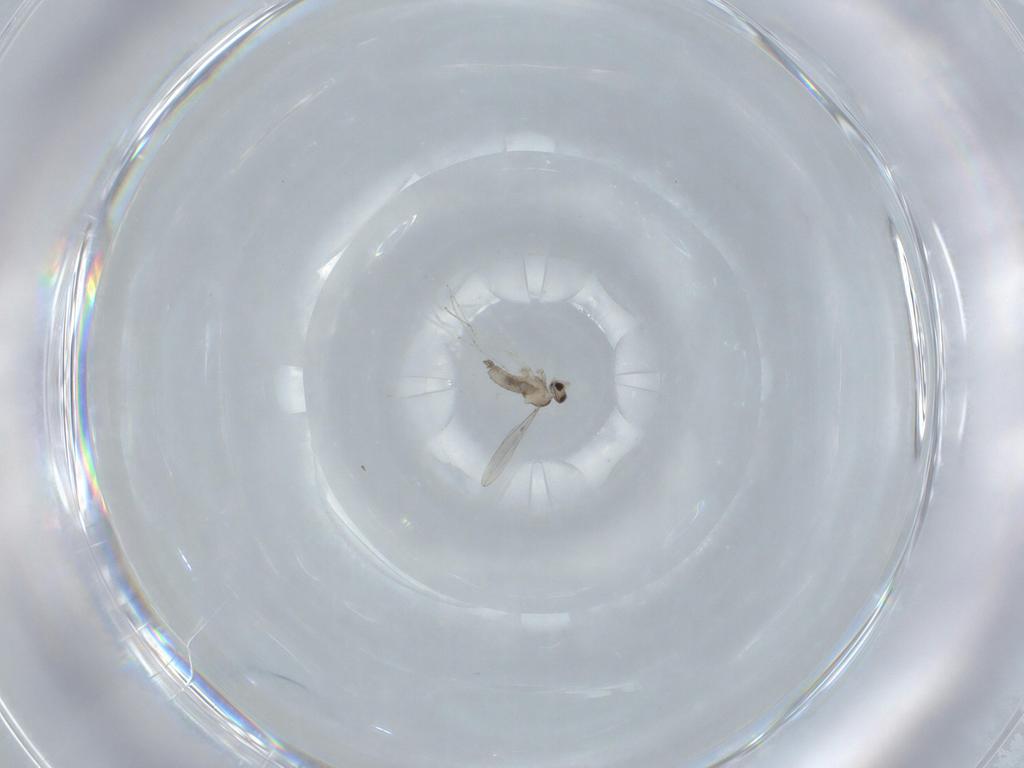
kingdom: Animalia
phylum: Arthropoda
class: Insecta
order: Diptera
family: Cecidomyiidae
